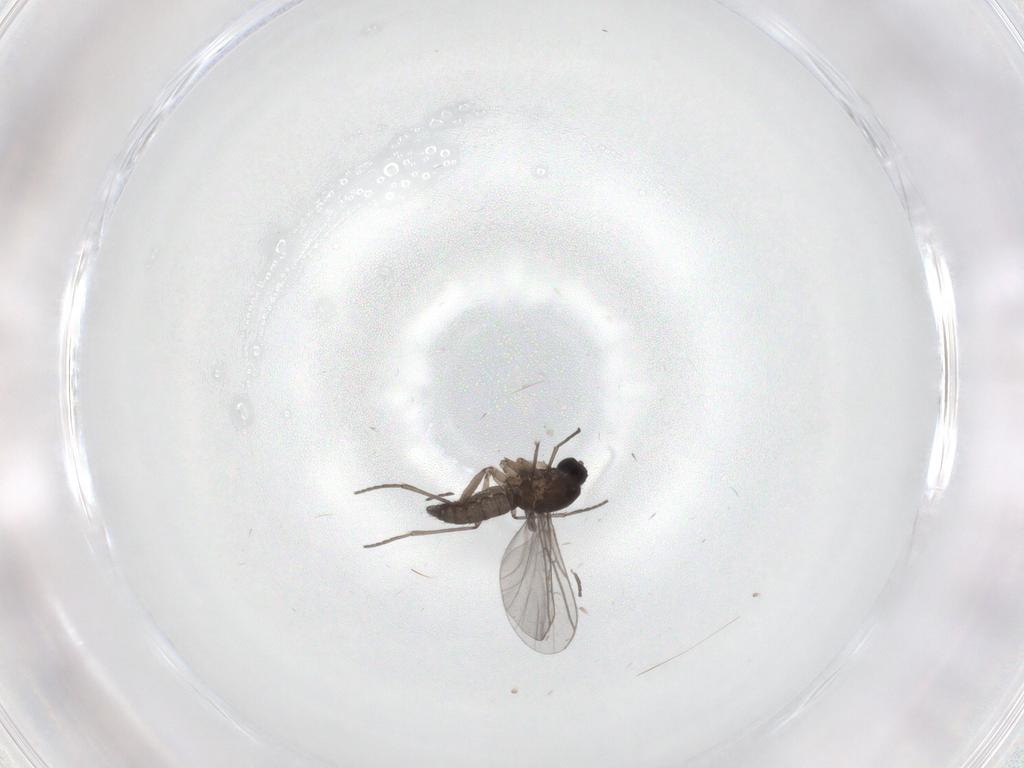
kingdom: Animalia
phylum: Arthropoda
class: Insecta
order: Diptera
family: Phoridae
